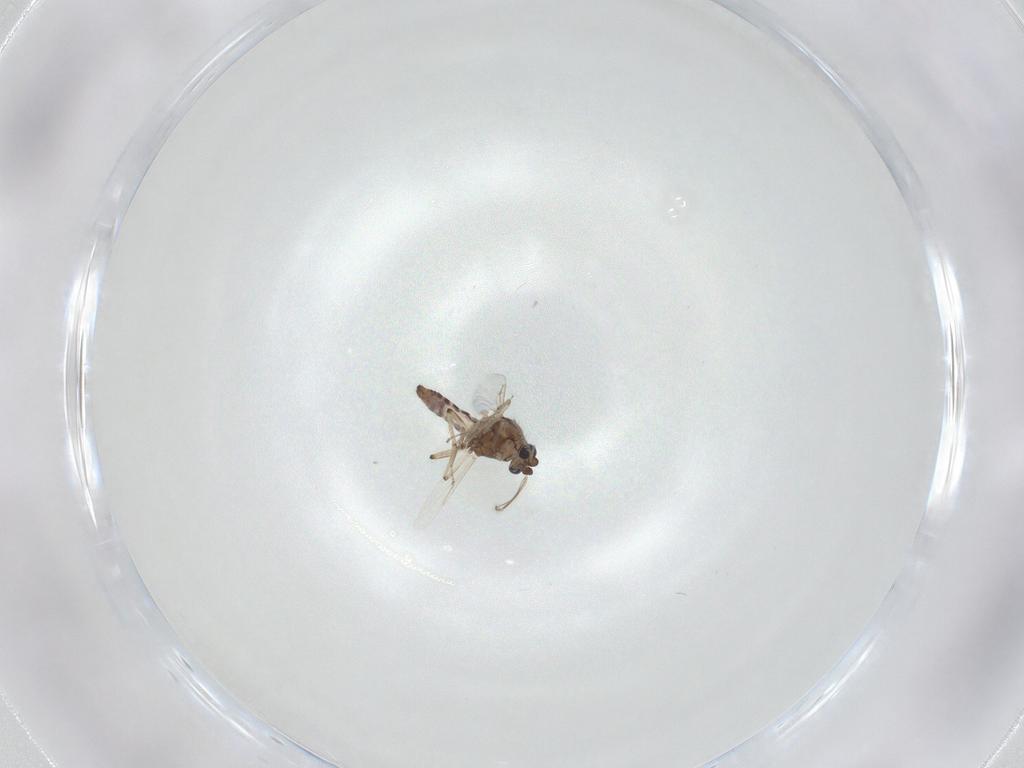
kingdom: Animalia
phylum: Arthropoda
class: Insecta
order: Diptera
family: Ceratopogonidae
